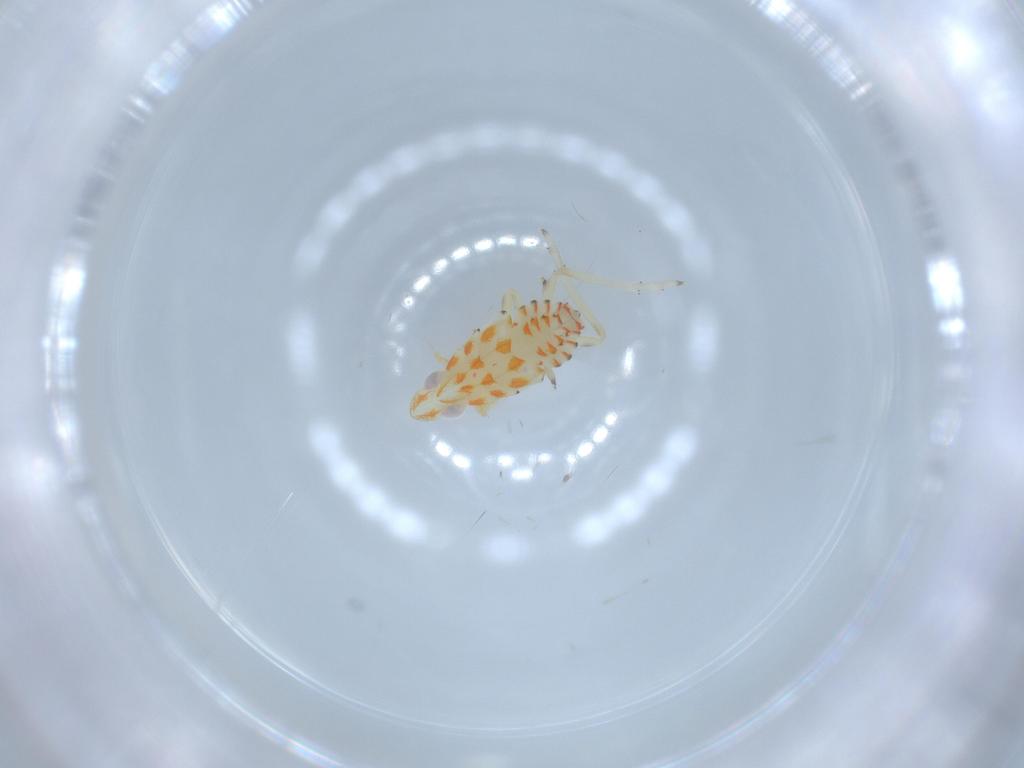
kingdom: Animalia
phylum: Arthropoda
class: Insecta
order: Hemiptera
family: Tropiduchidae
